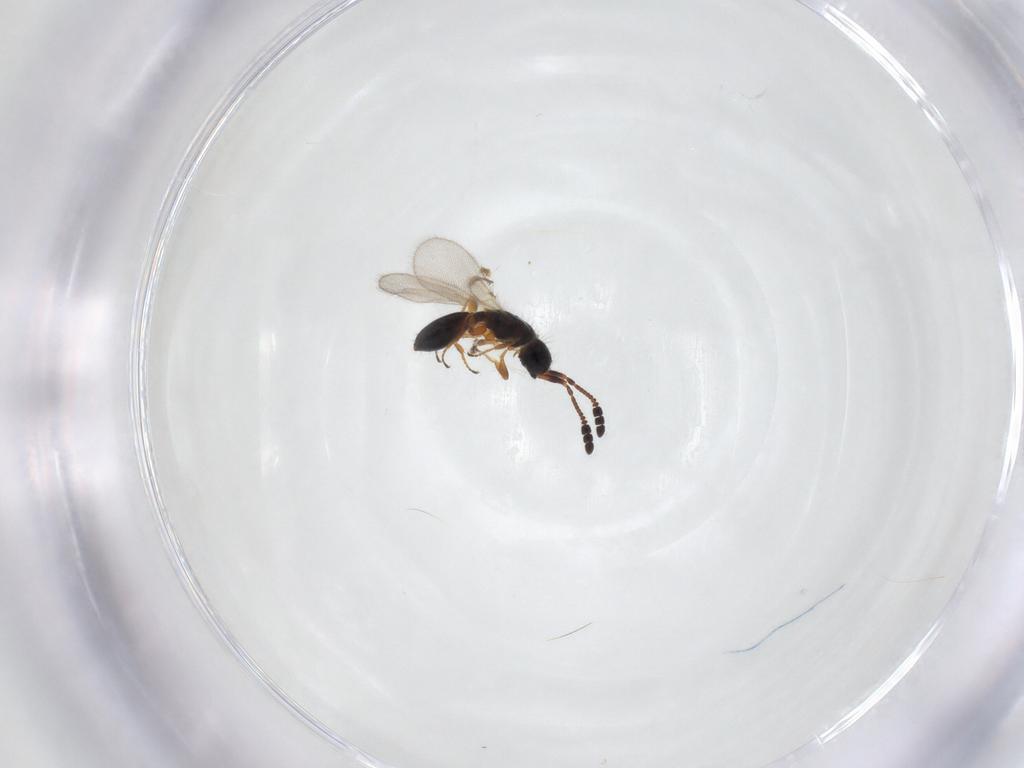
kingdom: Animalia
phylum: Arthropoda
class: Insecta
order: Hymenoptera
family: Diapriidae
